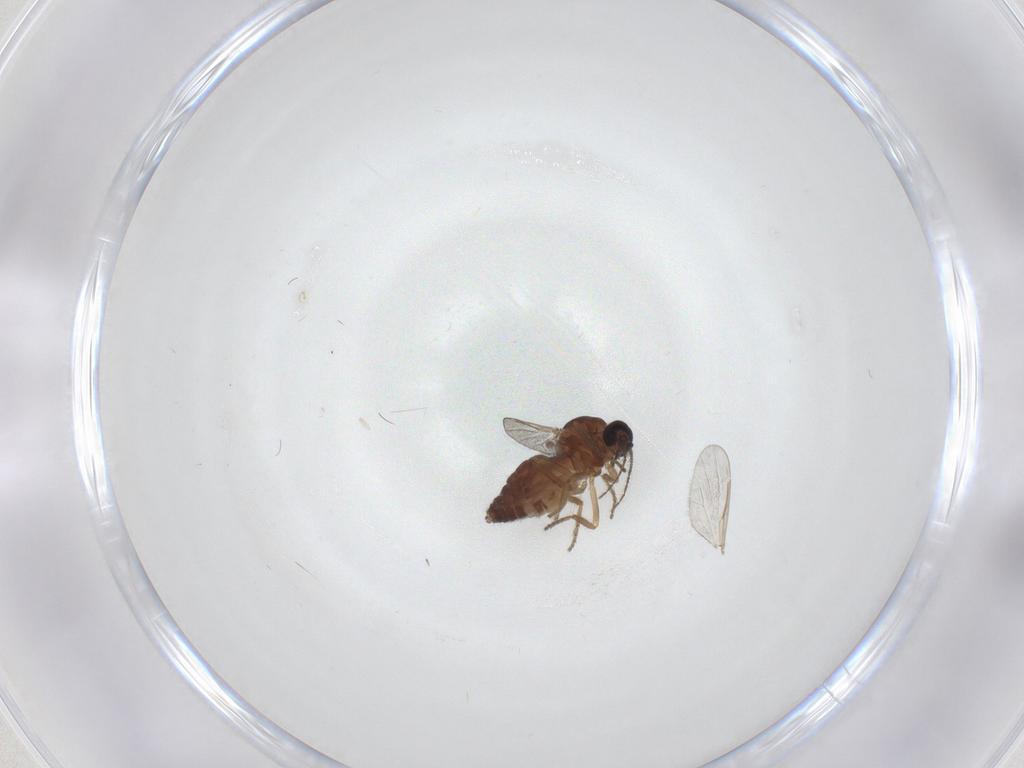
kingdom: Animalia
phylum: Arthropoda
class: Insecta
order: Diptera
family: Ceratopogonidae
